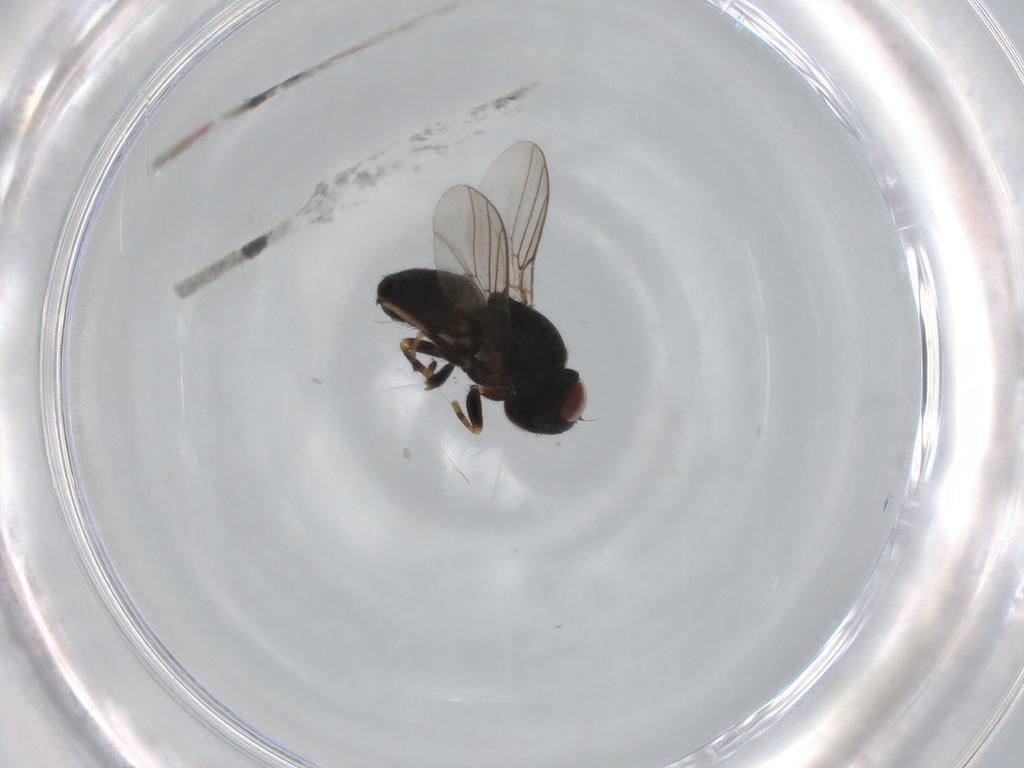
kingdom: Animalia
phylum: Arthropoda
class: Insecta
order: Diptera
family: Chloropidae
